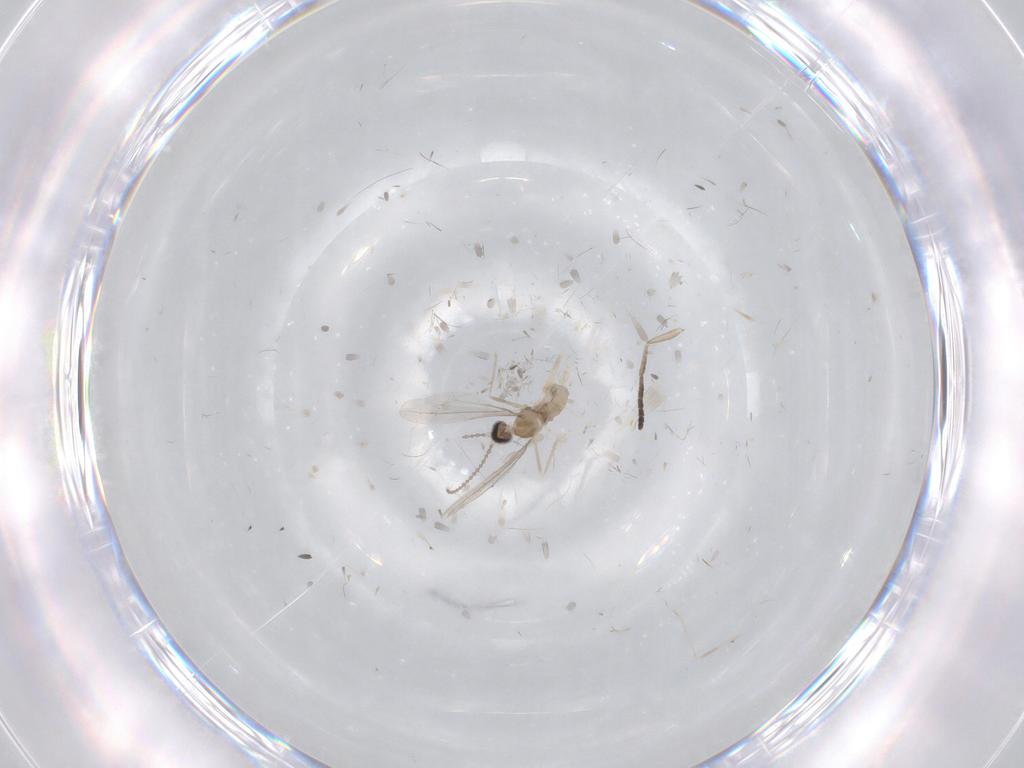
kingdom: Animalia
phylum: Arthropoda
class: Insecta
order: Diptera
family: Cecidomyiidae
